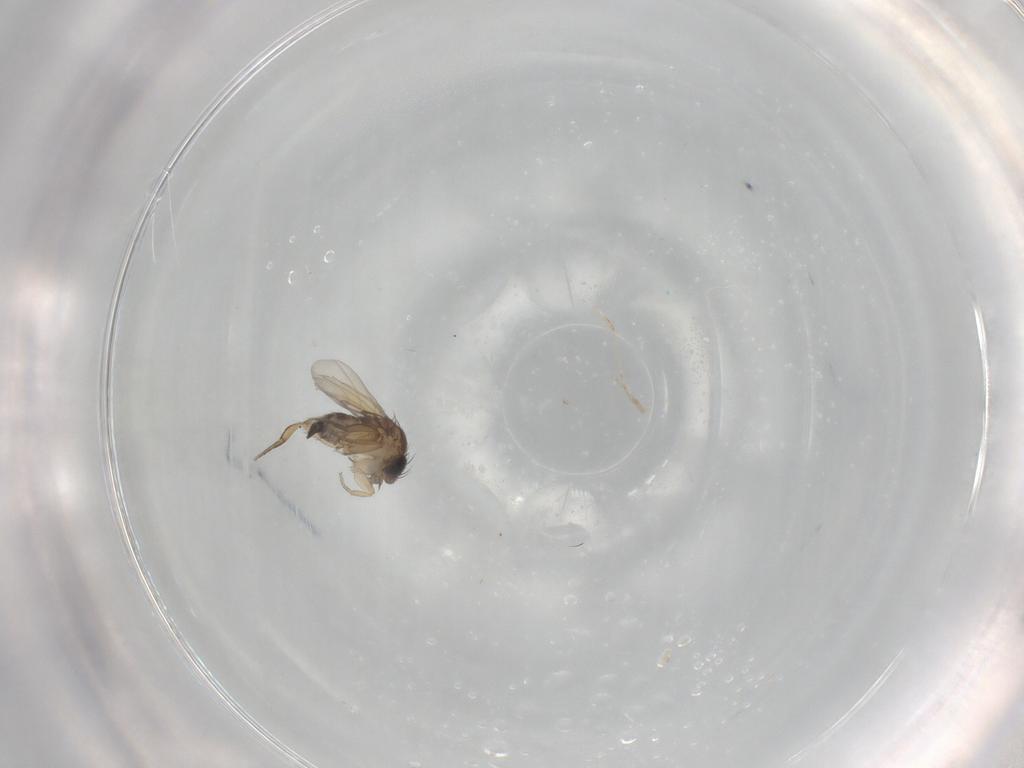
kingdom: Animalia
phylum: Arthropoda
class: Insecta
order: Diptera
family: Phoridae
